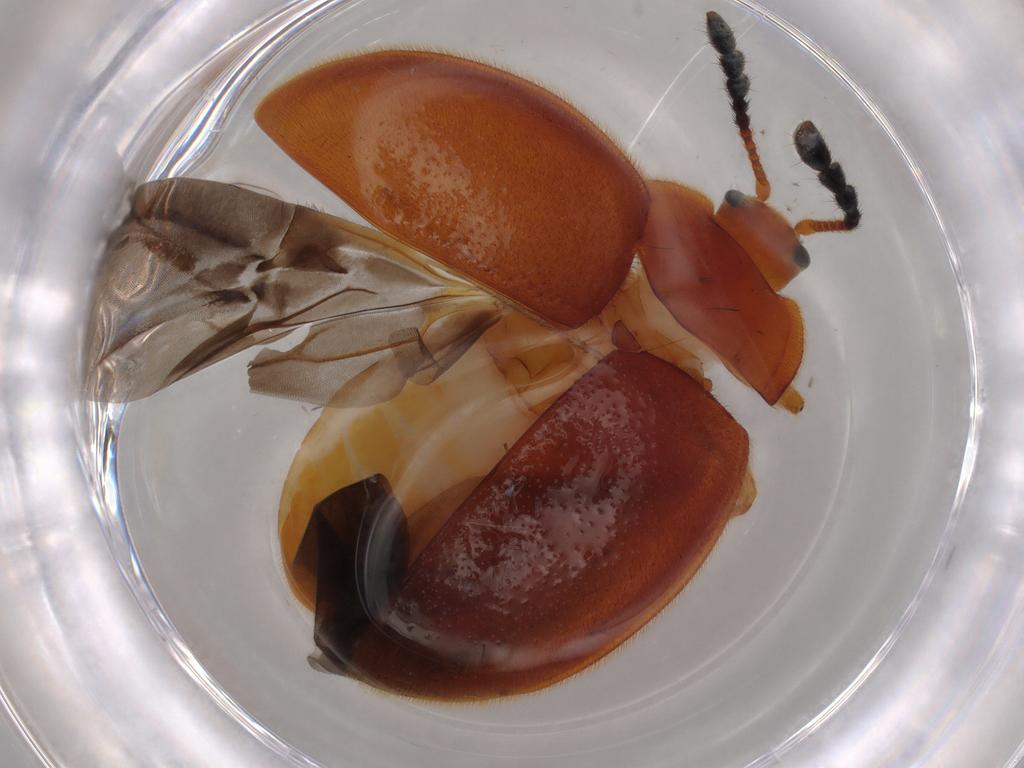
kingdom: Animalia
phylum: Arthropoda
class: Insecta
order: Coleoptera
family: Endomychidae
